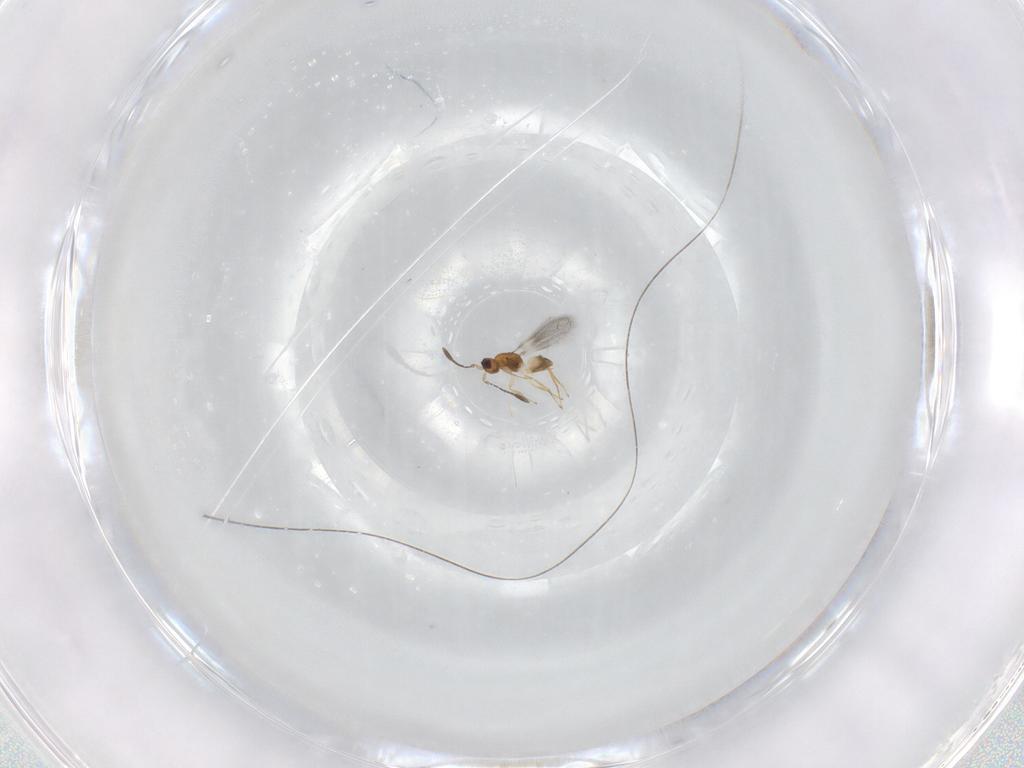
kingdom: Animalia
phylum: Arthropoda
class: Insecta
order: Hymenoptera
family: Mymaridae
